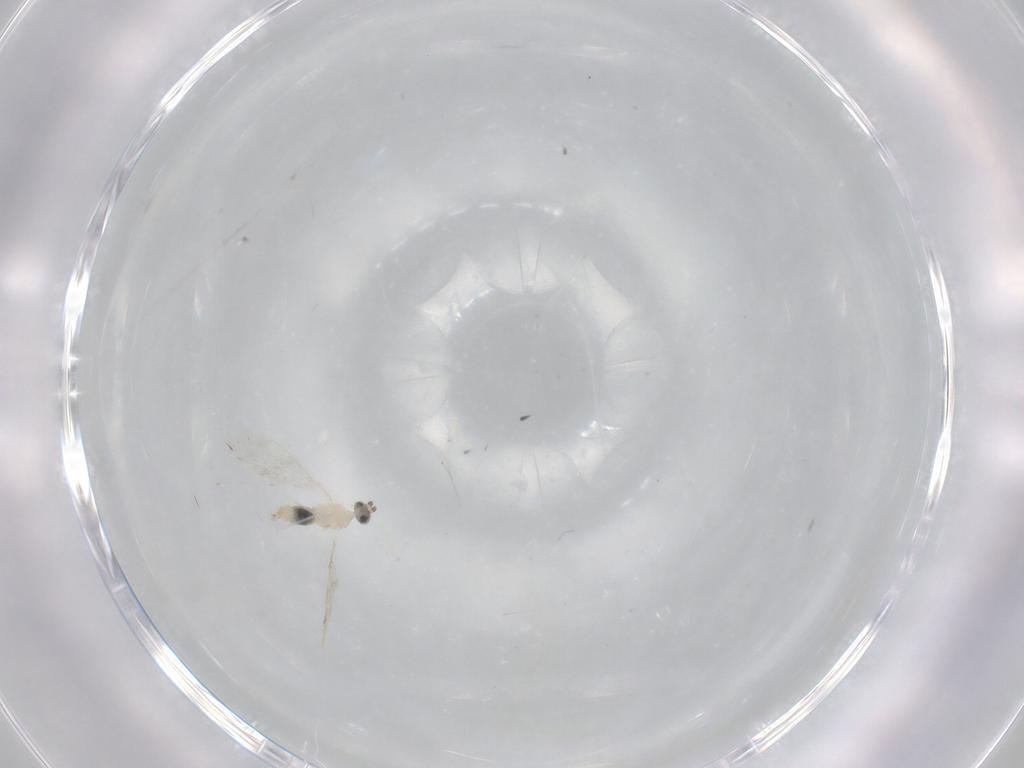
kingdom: Animalia
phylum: Arthropoda
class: Insecta
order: Diptera
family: Cecidomyiidae
